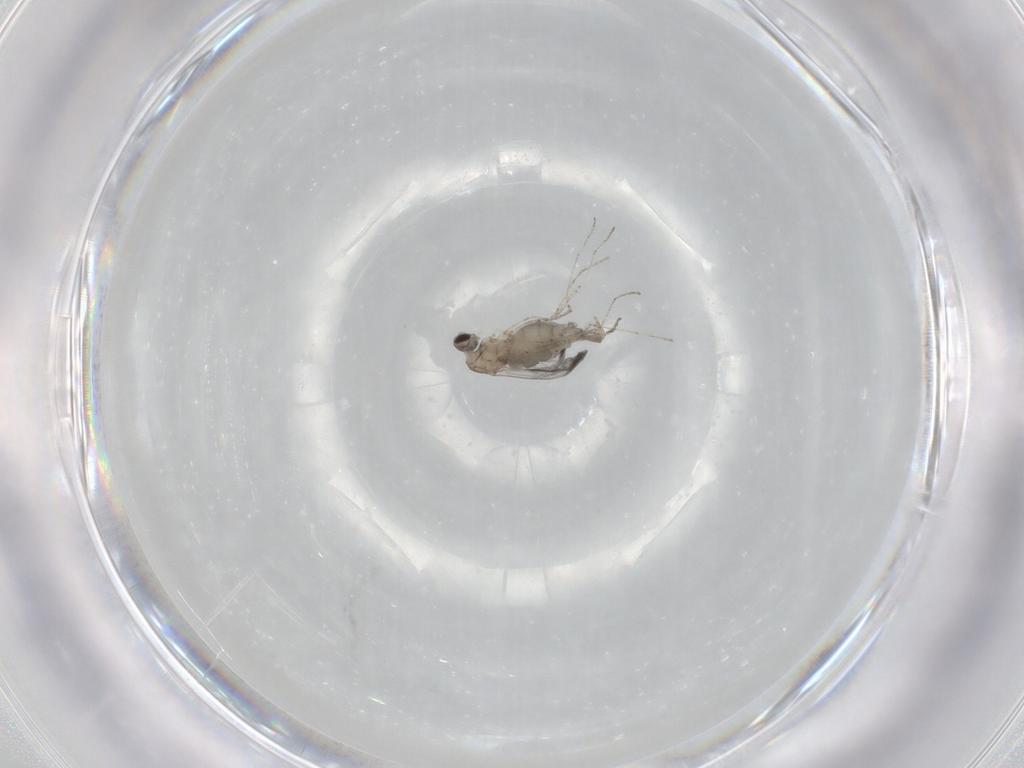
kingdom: Animalia
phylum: Arthropoda
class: Insecta
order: Diptera
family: Cecidomyiidae
